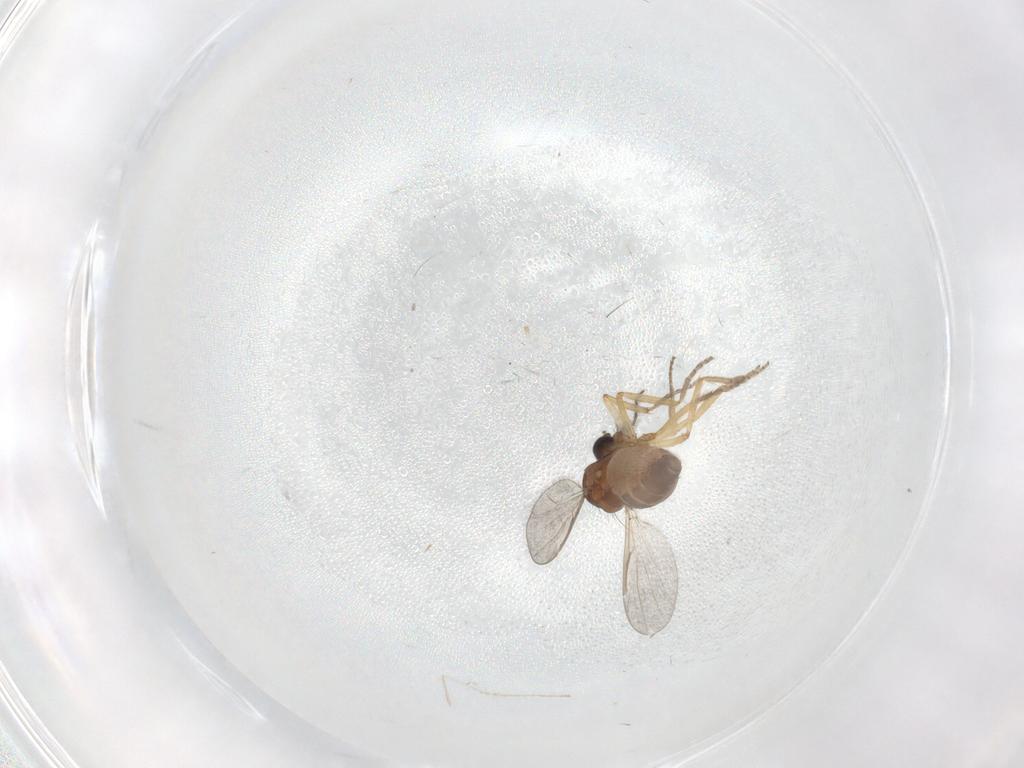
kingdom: Animalia
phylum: Arthropoda
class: Insecta
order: Diptera
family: Ceratopogonidae
